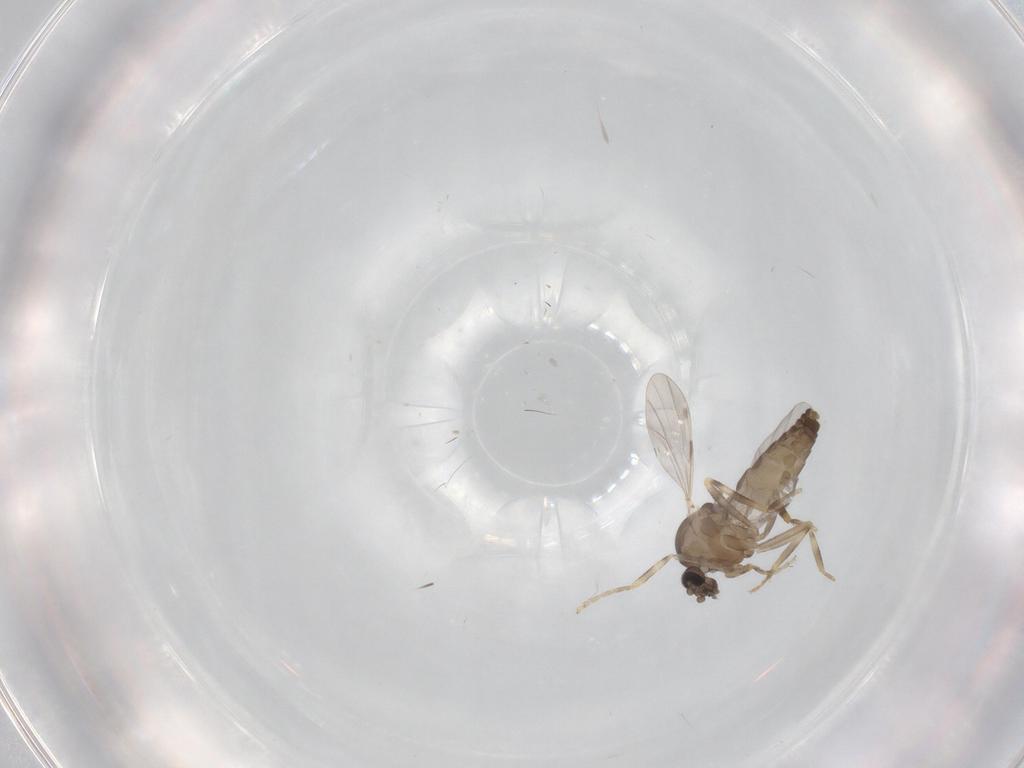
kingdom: Animalia
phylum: Arthropoda
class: Insecta
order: Diptera
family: Ceratopogonidae
